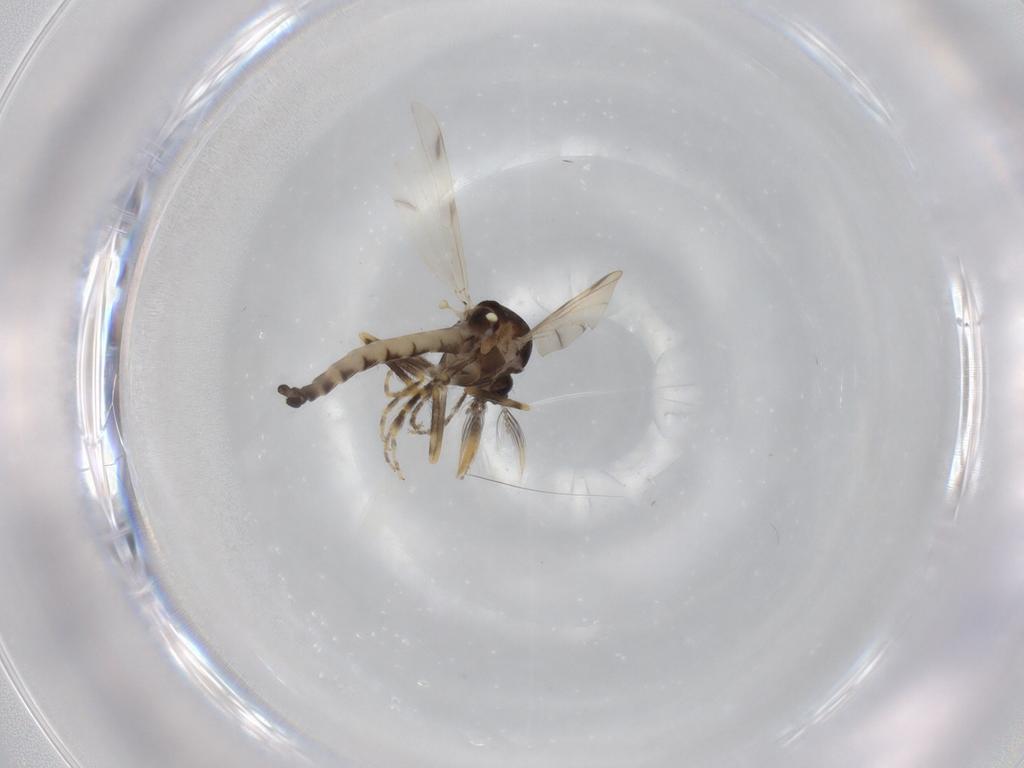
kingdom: Animalia
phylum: Arthropoda
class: Insecta
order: Diptera
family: Ceratopogonidae
